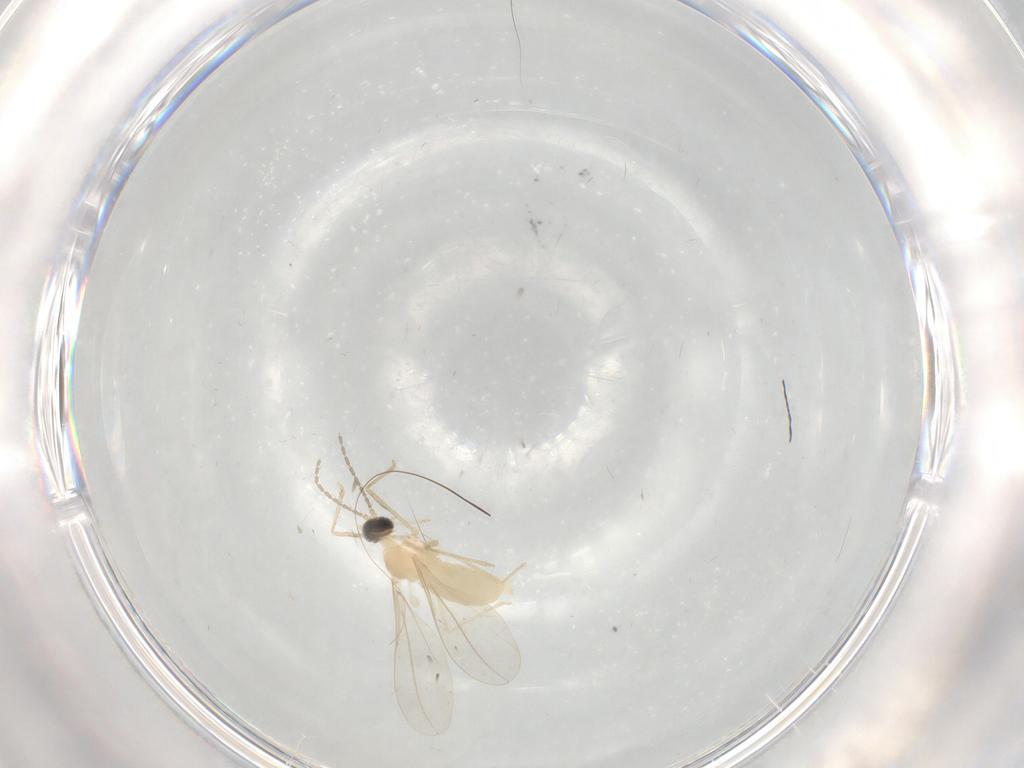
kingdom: Animalia
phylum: Arthropoda
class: Insecta
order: Diptera
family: Cecidomyiidae
